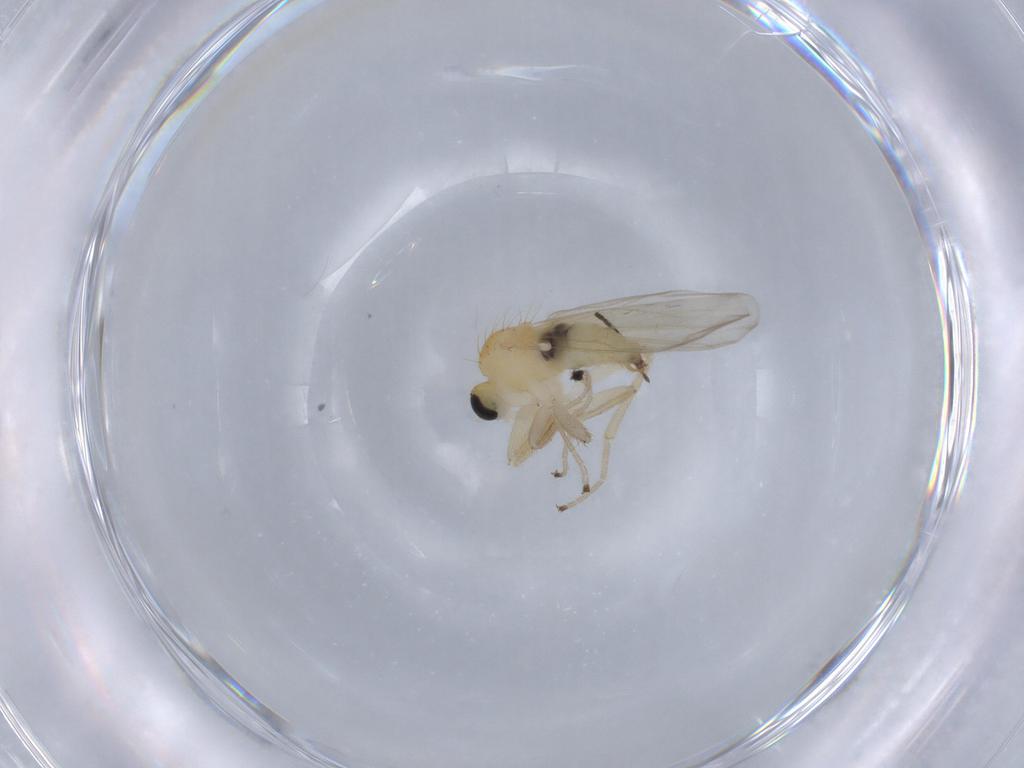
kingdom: Animalia
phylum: Arthropoda
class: Insecta
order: Diptera
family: Hybotidae
